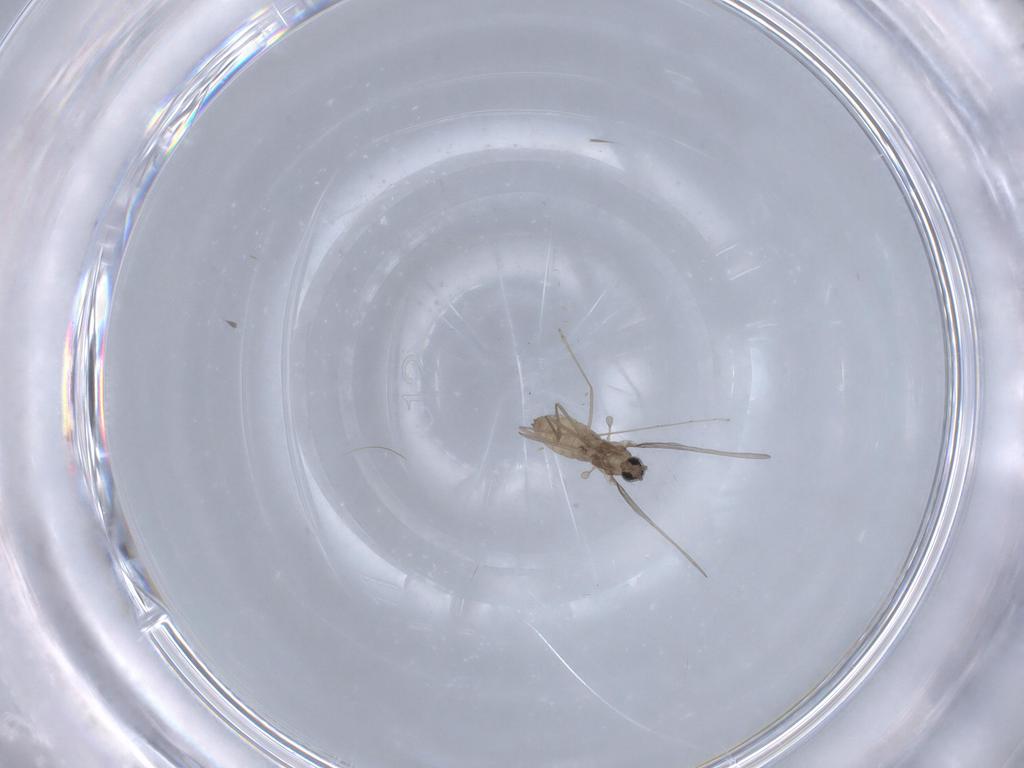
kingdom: Animalia
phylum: Arthropoda
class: Insecta
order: Diptera
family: Cecidomyiidae
